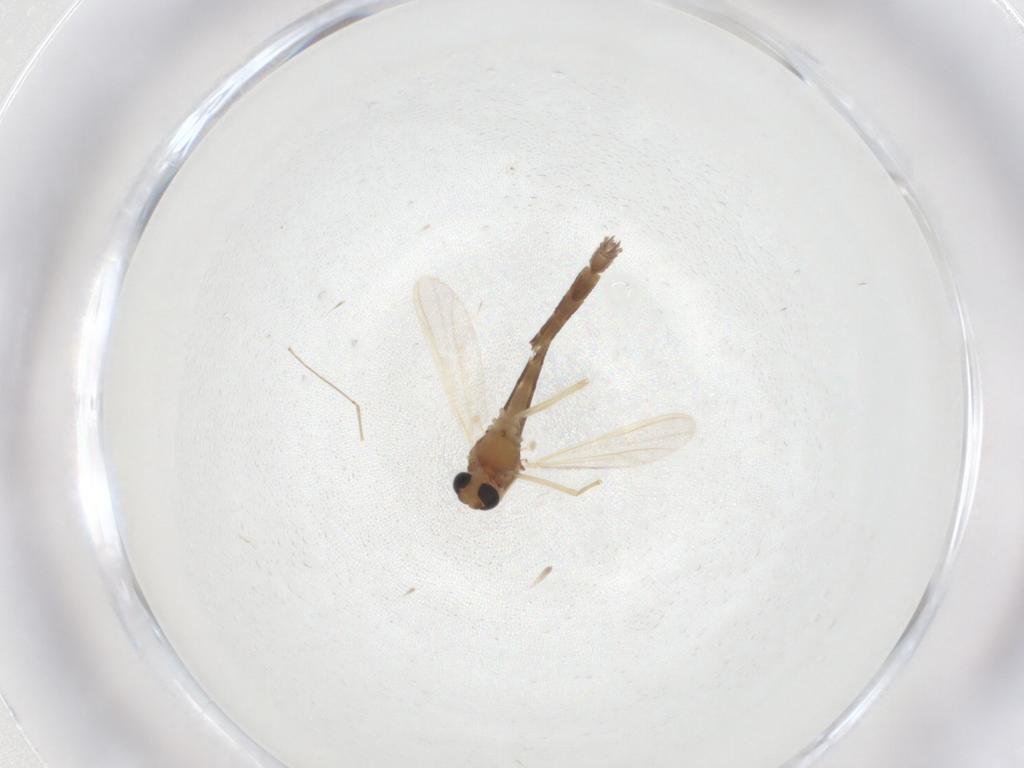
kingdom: Animalia
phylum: Arthropoda
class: Insecta
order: Diptera
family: Chironomidae
